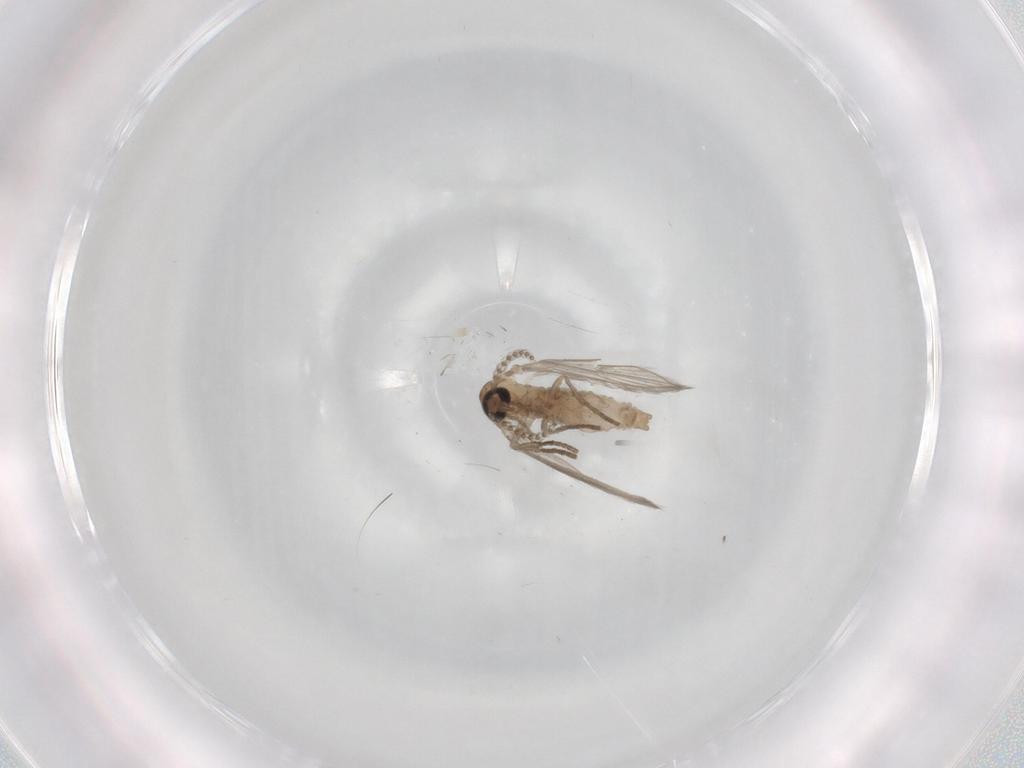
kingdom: Animalia
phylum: Arthropoda
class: Insecta
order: Diptera
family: Psychodidae
